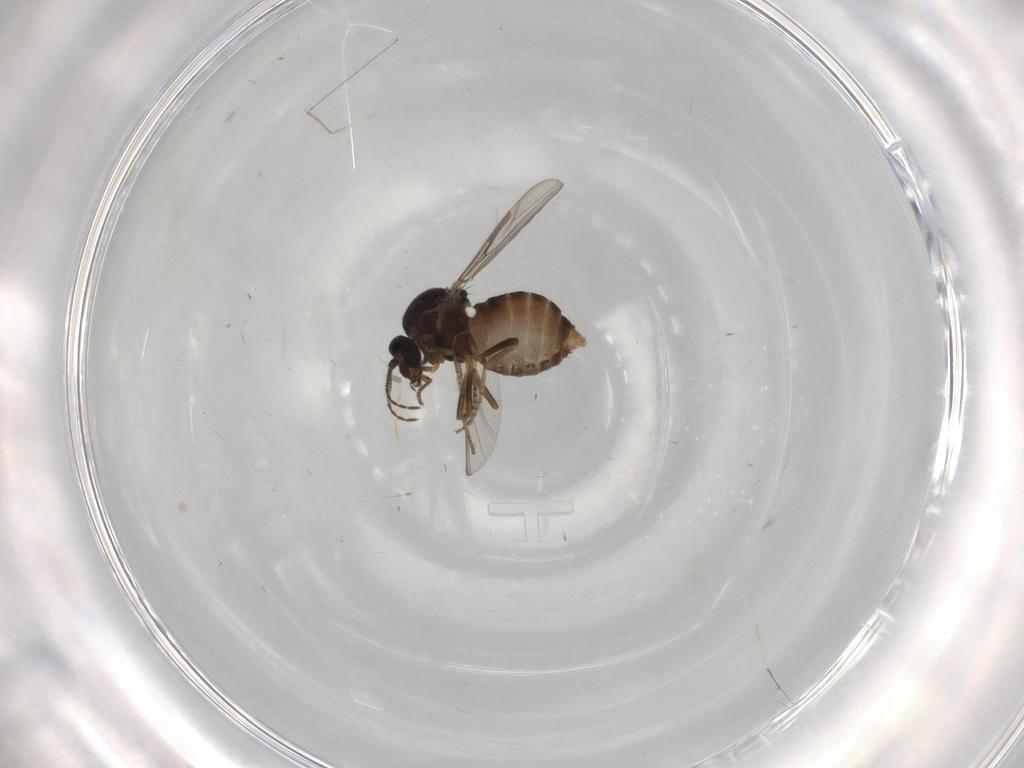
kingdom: Animalia
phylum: Arthropoda
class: Insecta
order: Diptera
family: Ceratopogonidae
